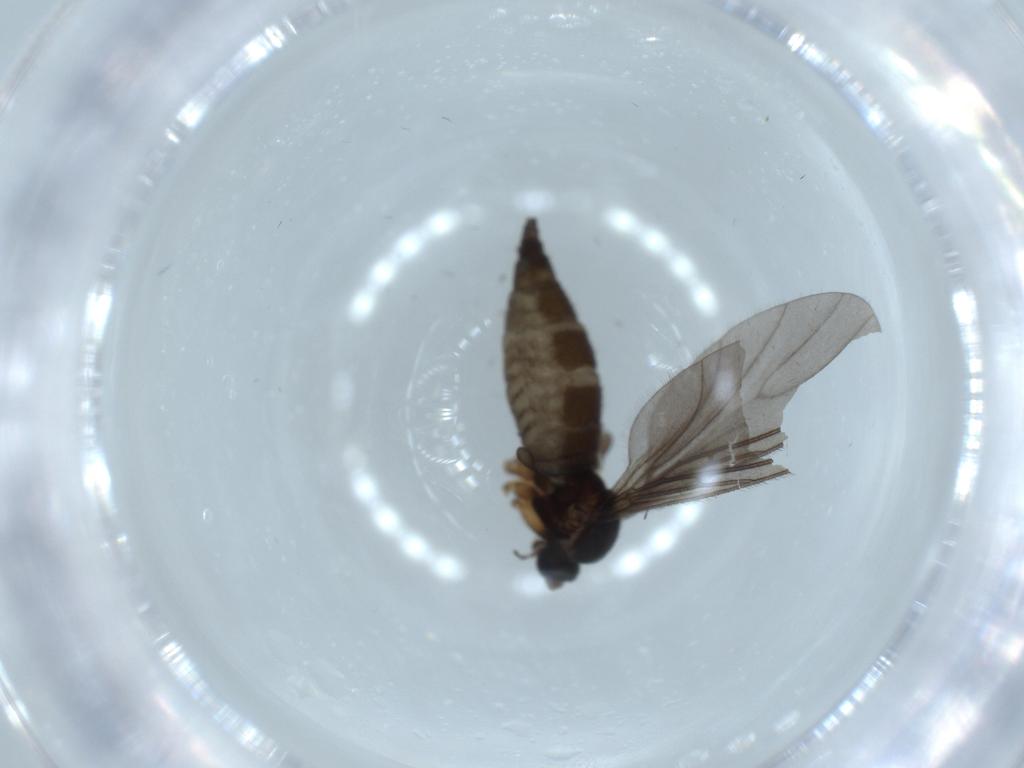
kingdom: Animalia
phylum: Arthropoda
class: Insecta
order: Diptera
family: Sciaridae
